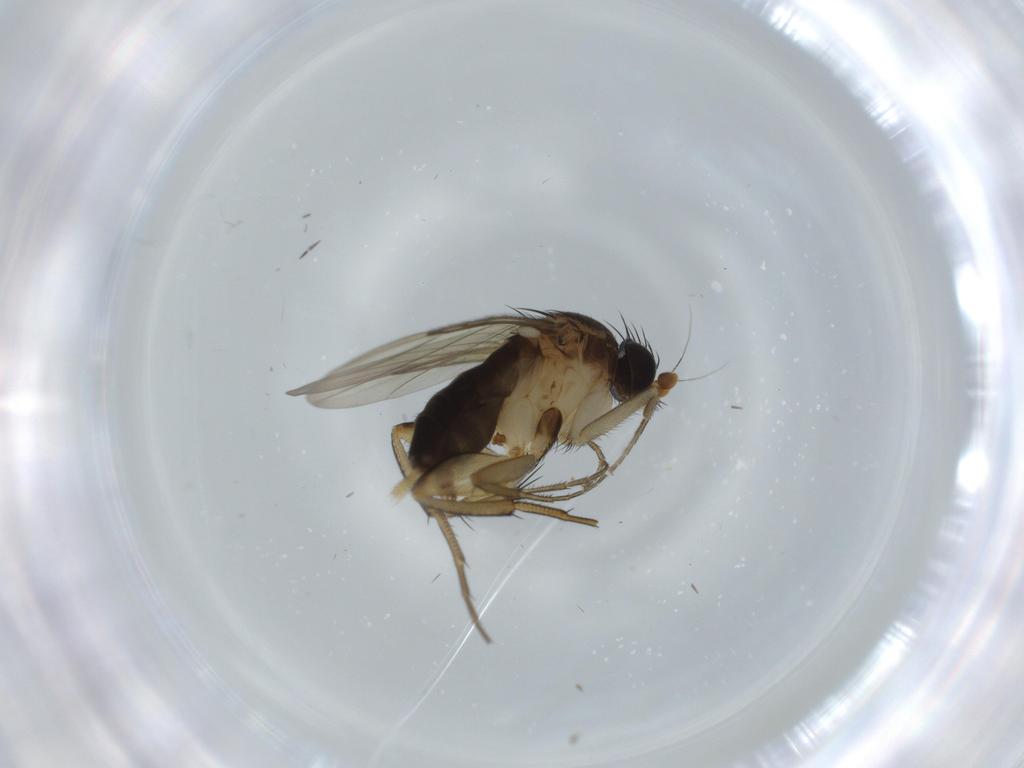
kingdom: Animalia
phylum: Arthropoda
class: Insecta
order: Diptera
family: Phoridae
